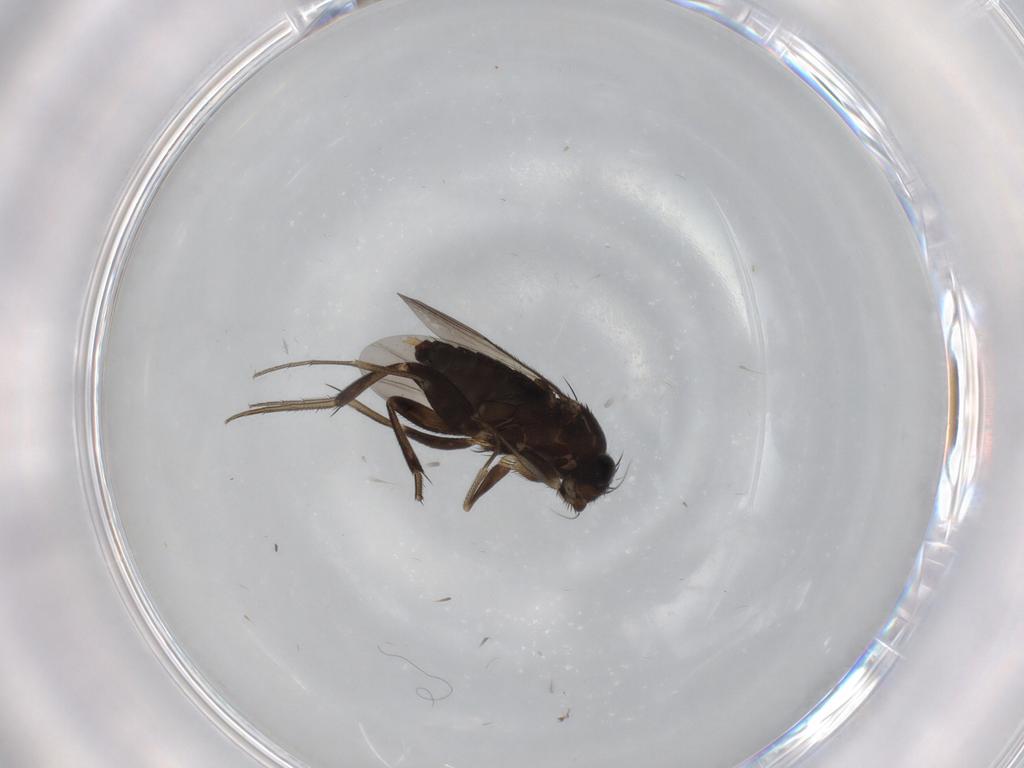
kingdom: Animalia
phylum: Arthropoda
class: Insecta
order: Diptera
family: Phoridae
